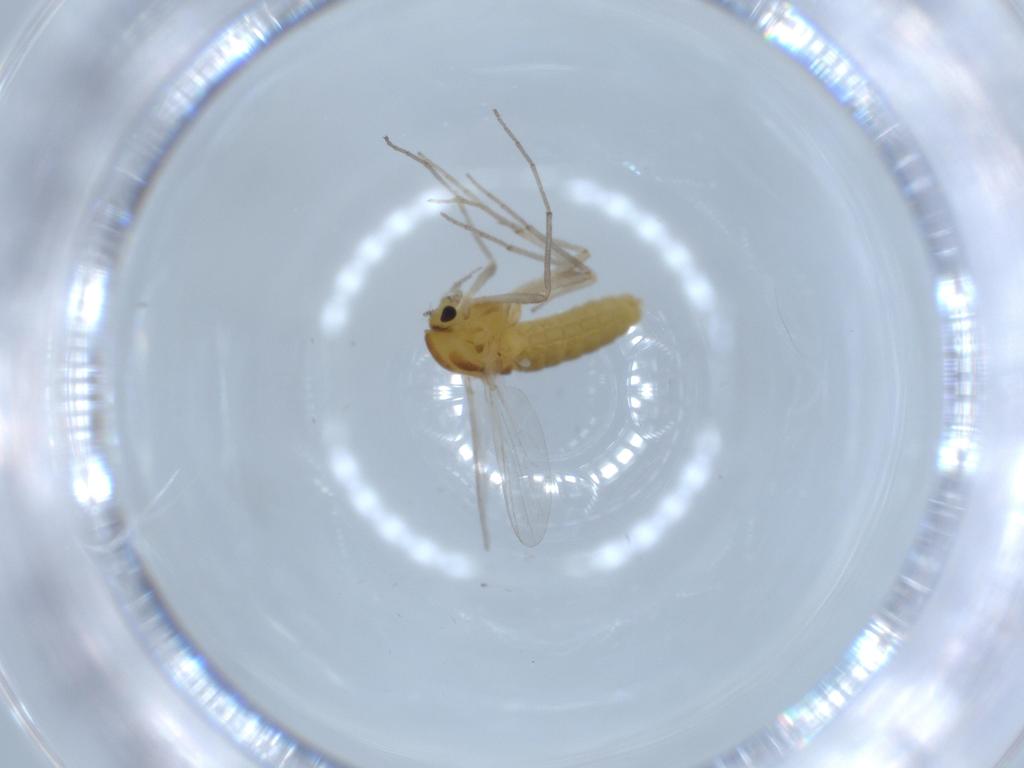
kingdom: Animalia
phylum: Arthropoda
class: Insecta
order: Diptera
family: Chironomidae
